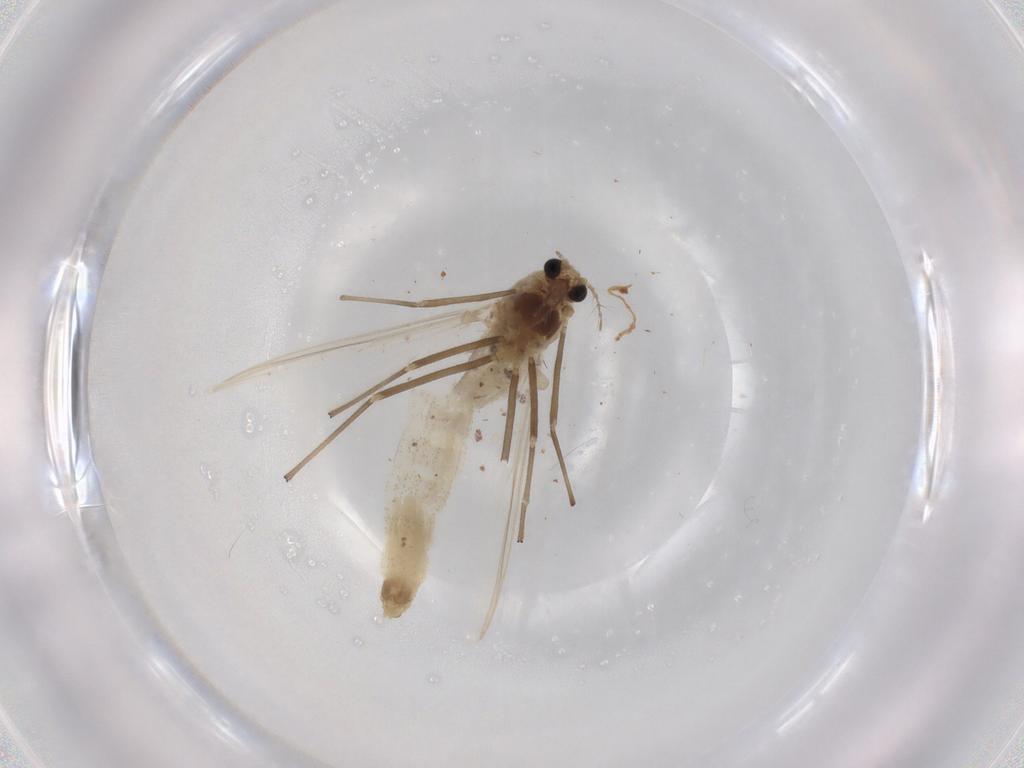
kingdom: Animalia
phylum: Arthropoda
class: Insecta
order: Diptera
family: Chironomidae
